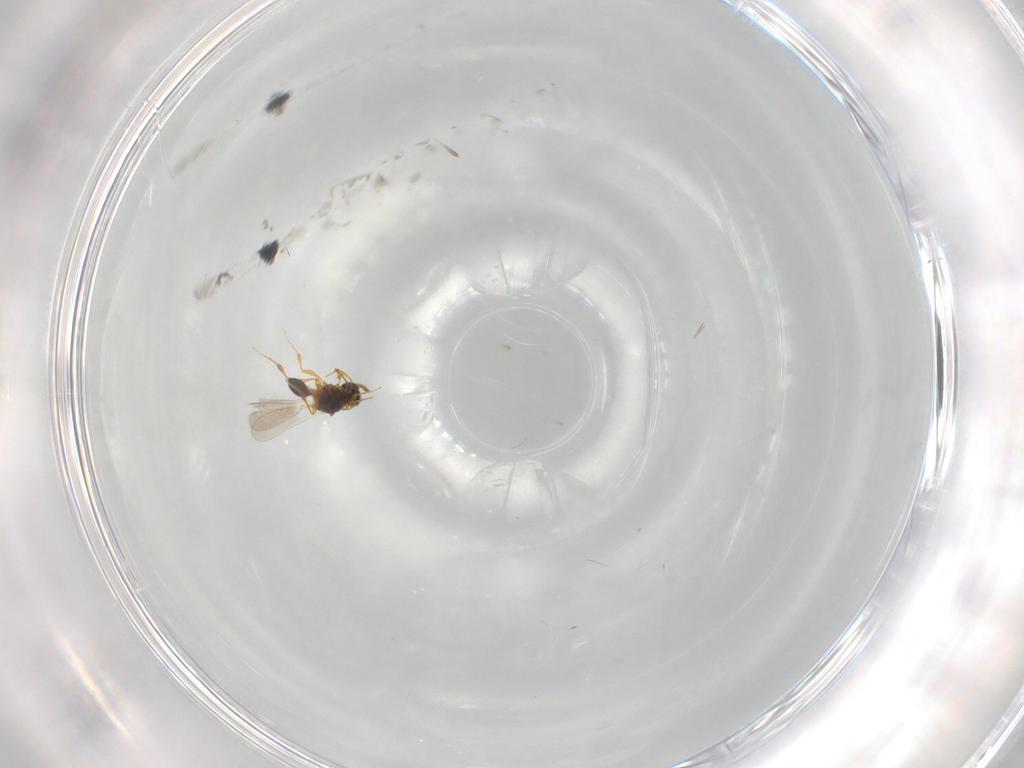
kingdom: Animalia
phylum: Arthropoda
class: Insecta
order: Hymenoptera
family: Platygastridae
